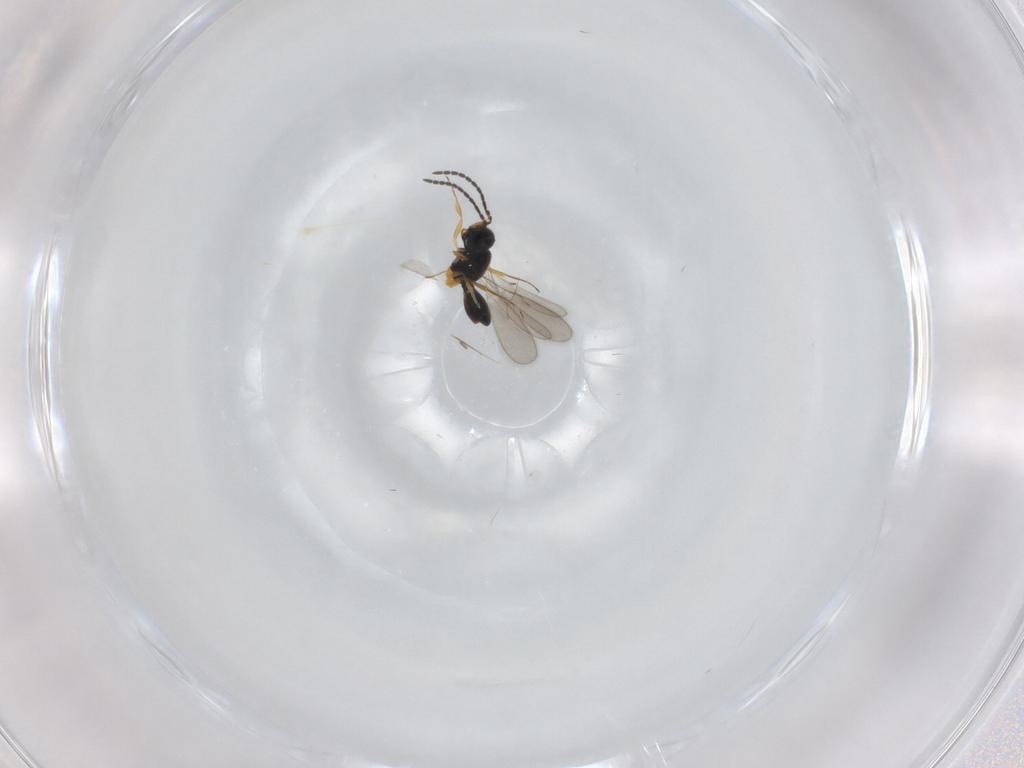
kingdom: Animalia
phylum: Arthropoda
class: Insecta
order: Hymenoptera
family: Scelionidae
